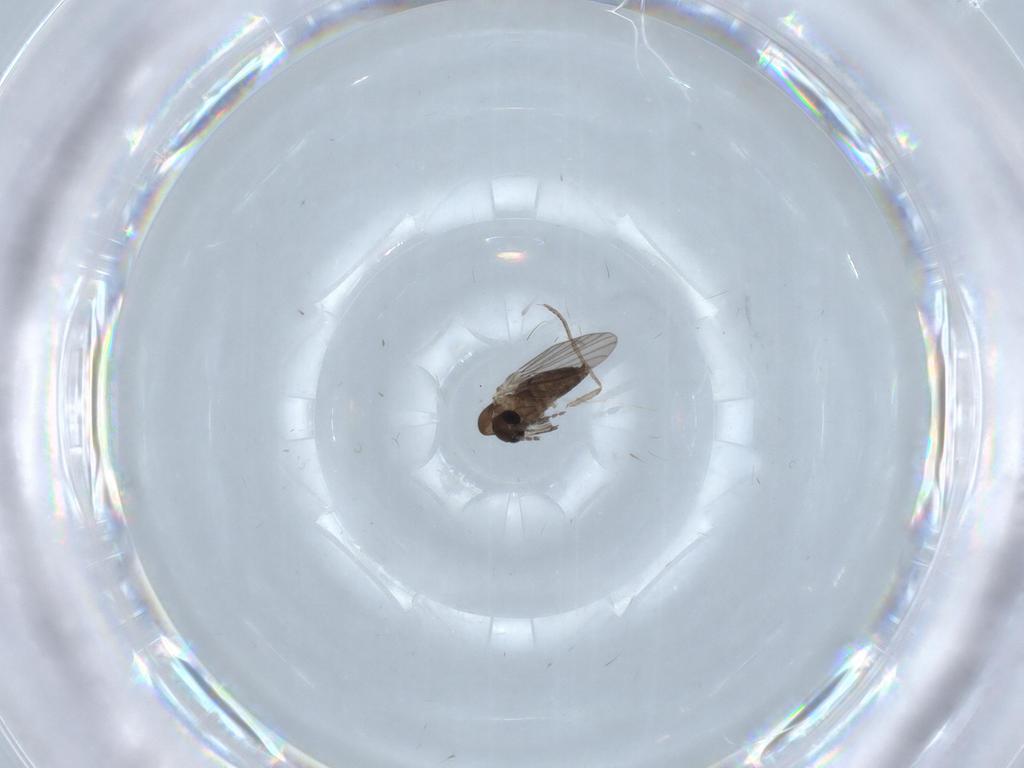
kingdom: Animalia
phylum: Arthropoda
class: Insecta
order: Diptera
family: Psychodidae
